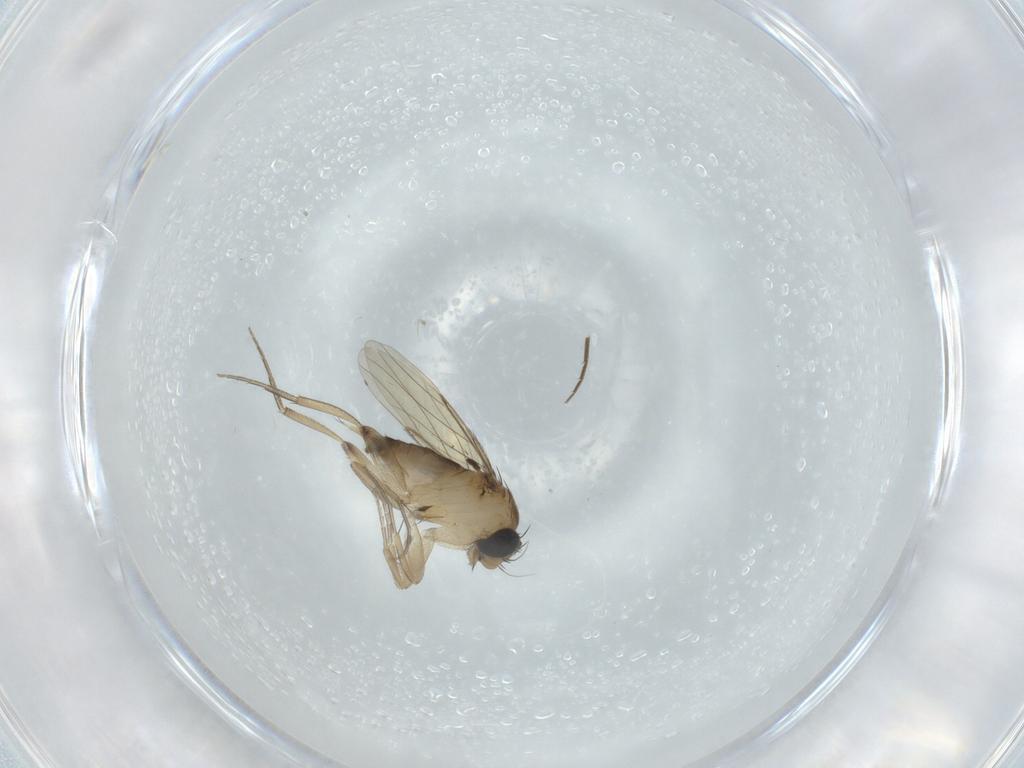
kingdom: Animalia
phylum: Arthropoda
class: Insecta
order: Diptera
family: Phoridae
